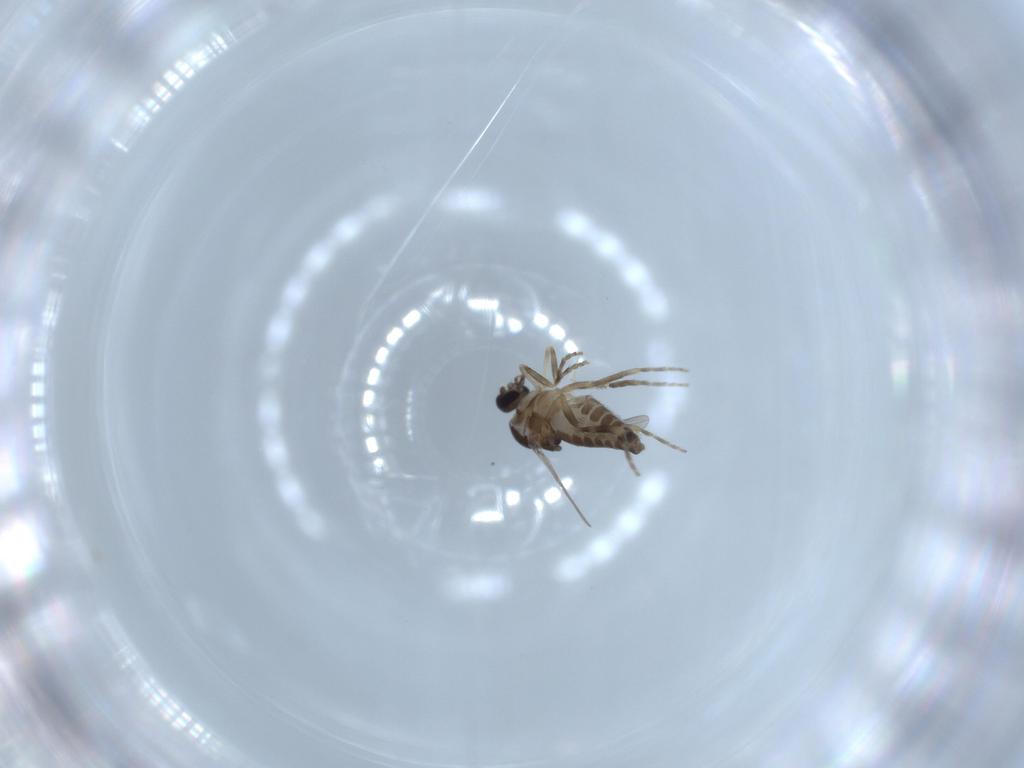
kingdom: Animalia
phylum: Arthropoda
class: Insecta
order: Diptera
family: Ceratopogonidae
